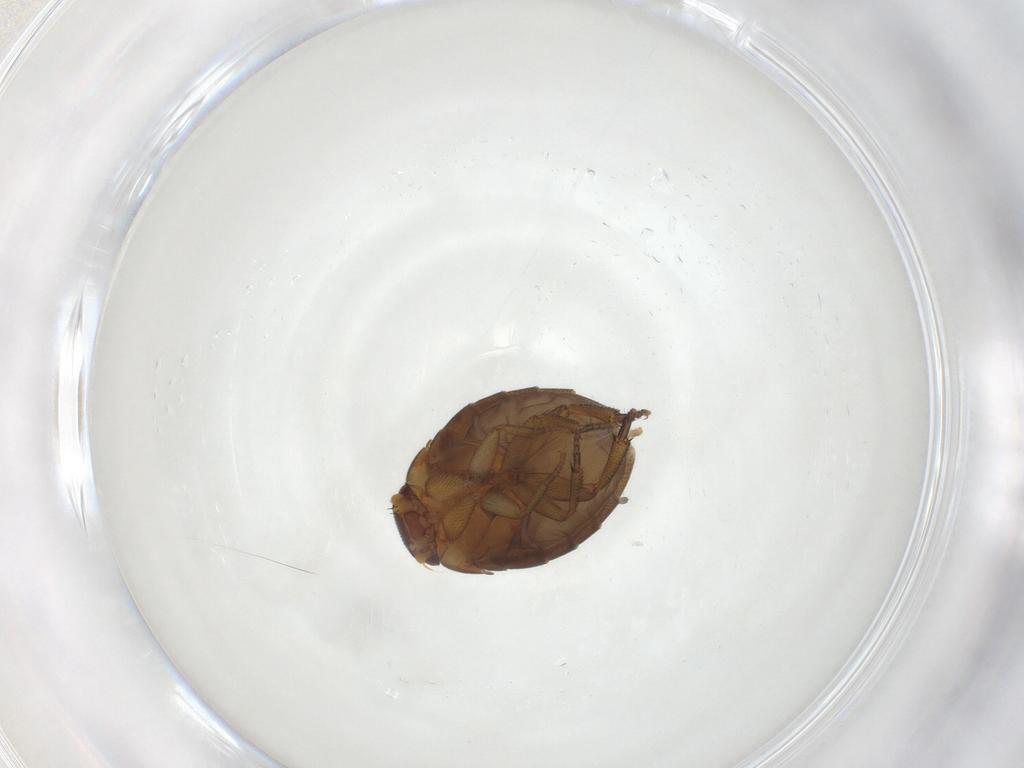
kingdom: Animalia
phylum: Arthropoda
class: Insecta
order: Diptera
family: Phoridae
